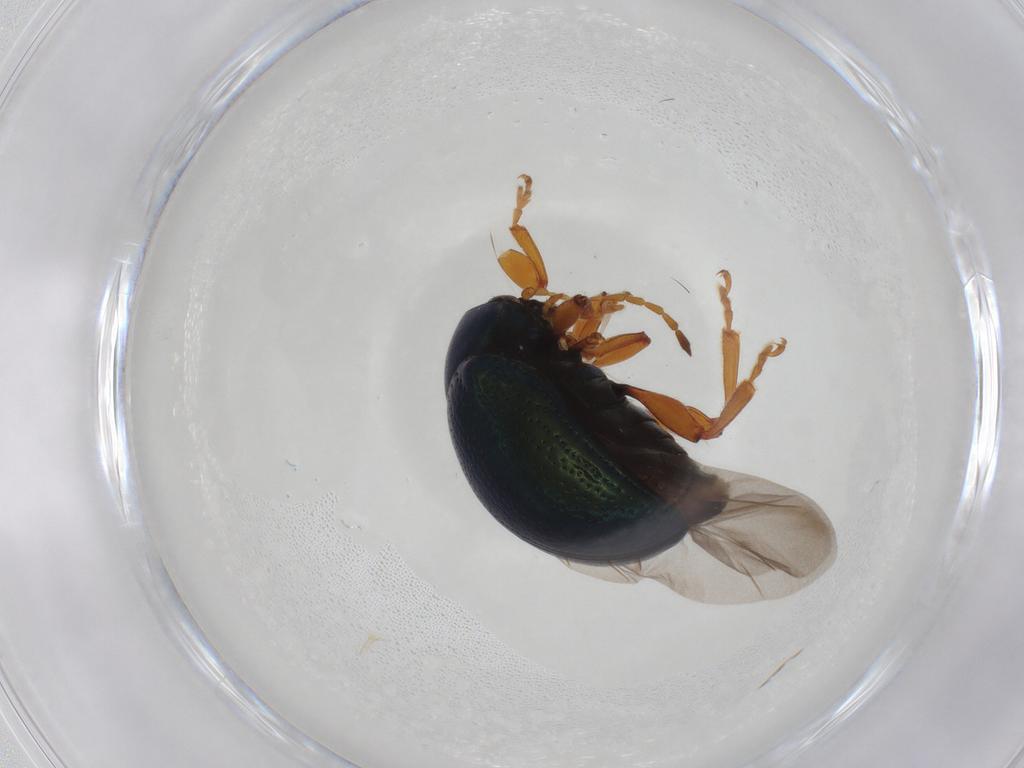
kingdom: Animalia
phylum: Arthropoda
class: Insecta
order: Coleoptera
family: Chrysomelidae
